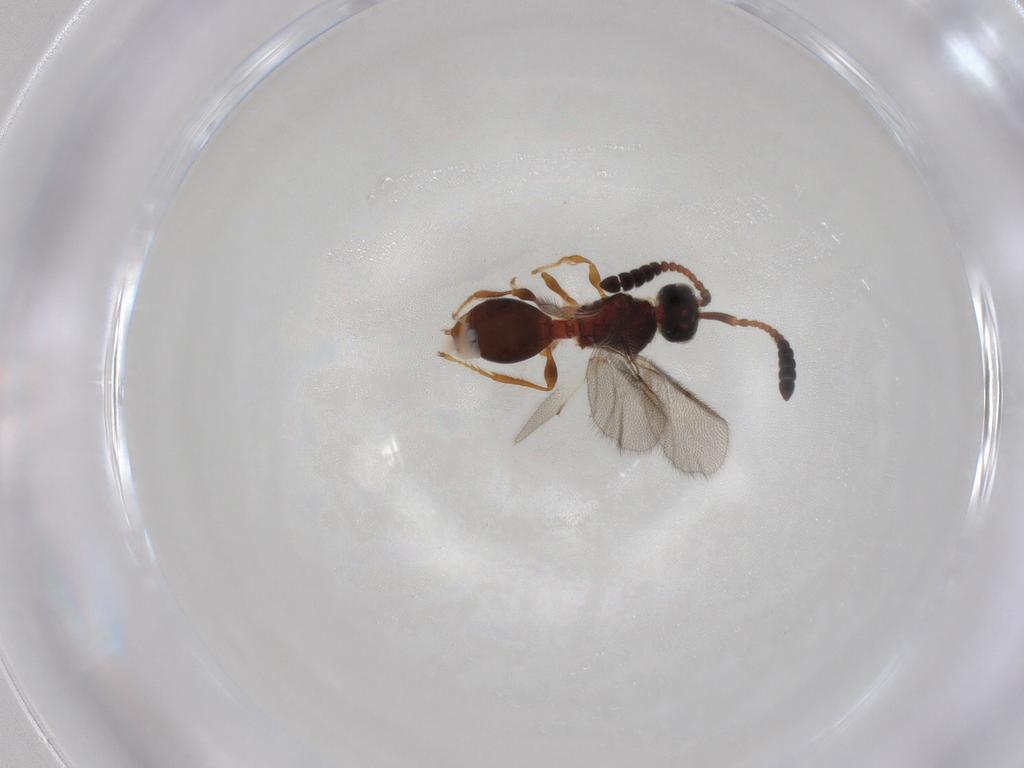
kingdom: Animalia
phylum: Arthropoda
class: Insecta
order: Hymenoptera
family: Diapriidae
